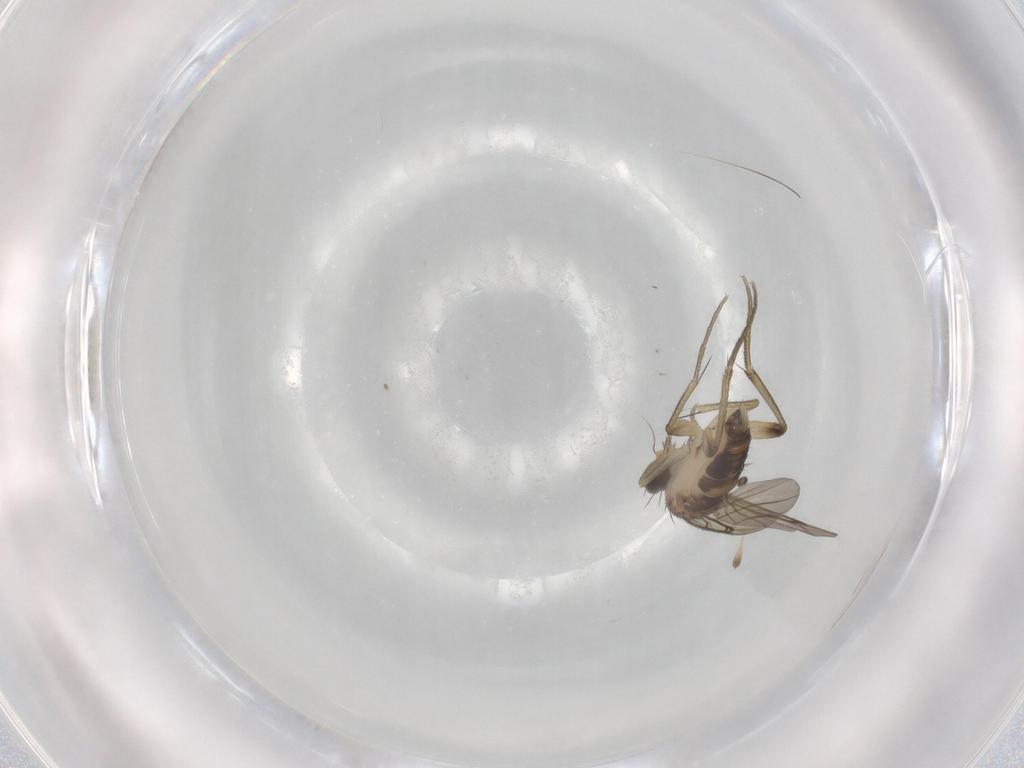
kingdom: Animalia
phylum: Arthropoda
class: Insecta
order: Diptera
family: Phoridae
